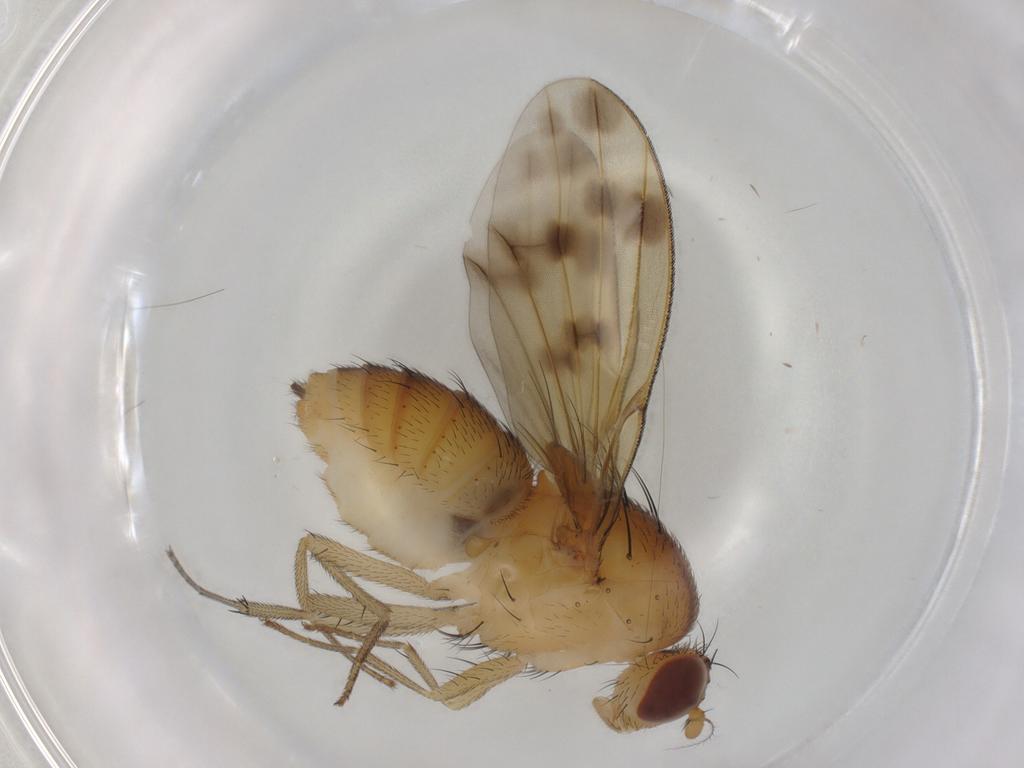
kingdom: Animalia
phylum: Arthropoda
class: Insecta
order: Diptera
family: Lauxaniidae
